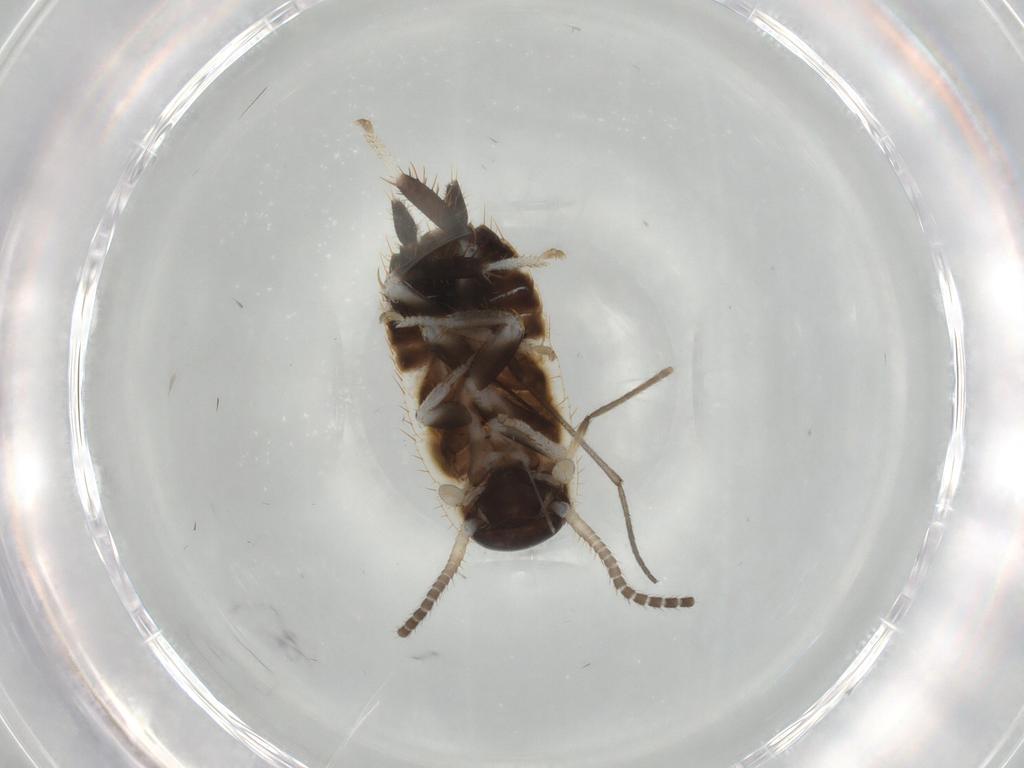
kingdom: Animalia
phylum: Arthropoda
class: Insecta
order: Blattodea
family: Ectobiidae
